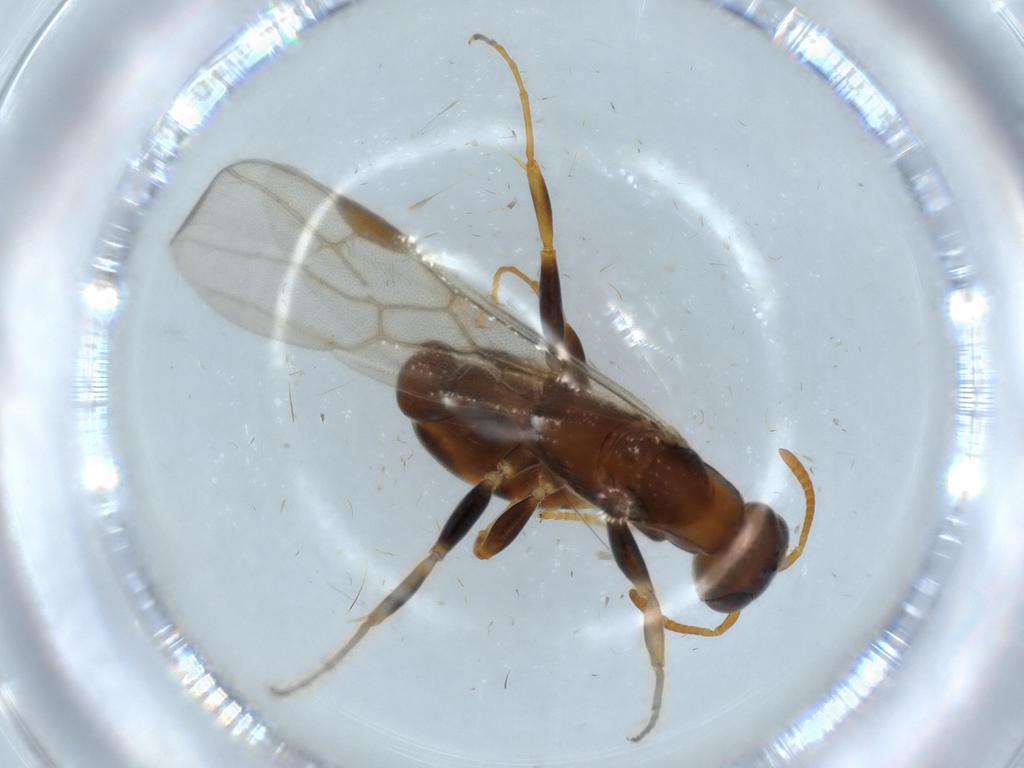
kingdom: Animalia
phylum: Arthropoda
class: Insecta
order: Hymenoptera
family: Formicidae
